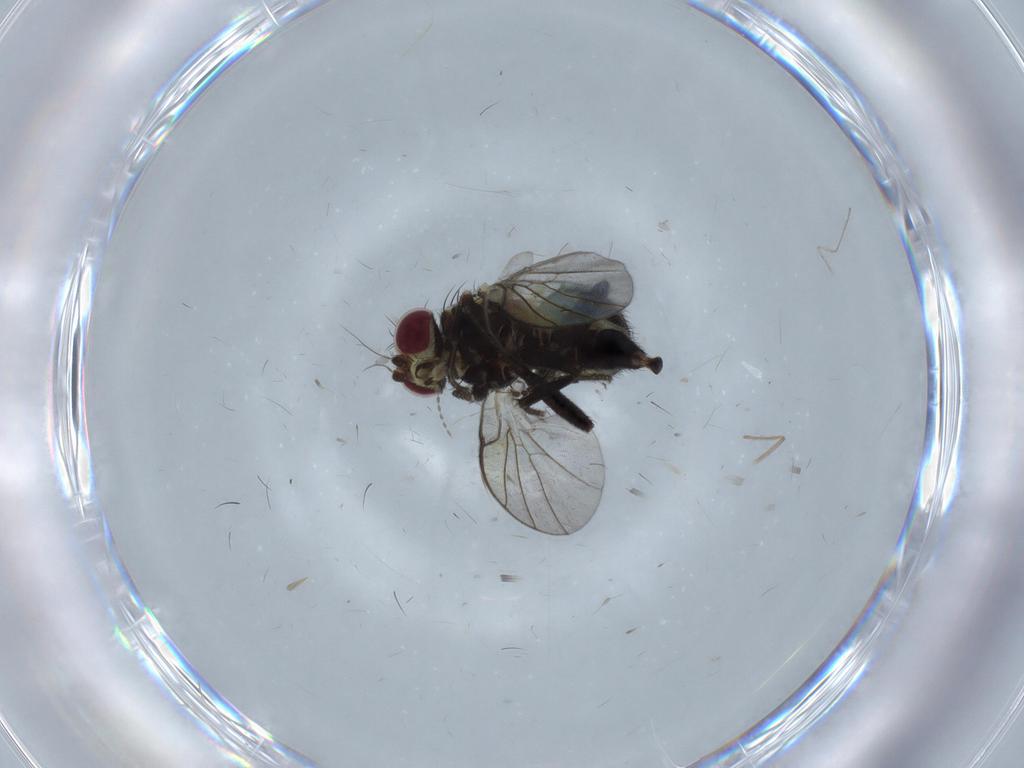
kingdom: Animalia
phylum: Arthropoda
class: Insecta
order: Diptera
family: Agromyzidae
